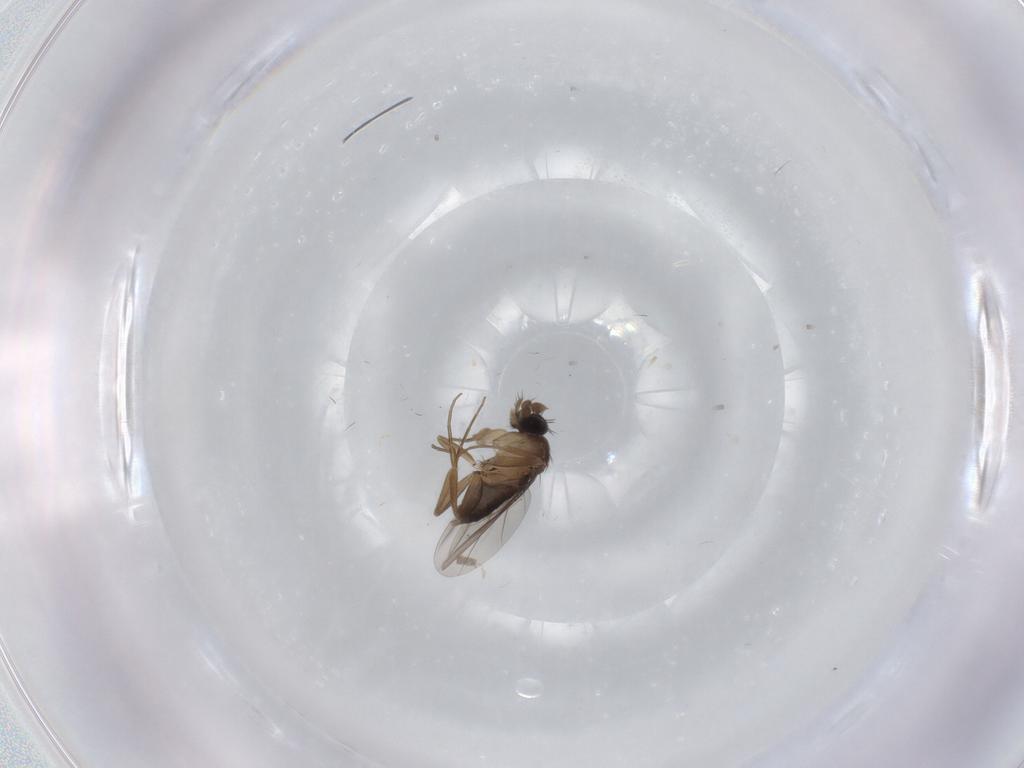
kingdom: Animalia
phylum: Arthropoda
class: Insecta
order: Diptera
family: Phoridae
